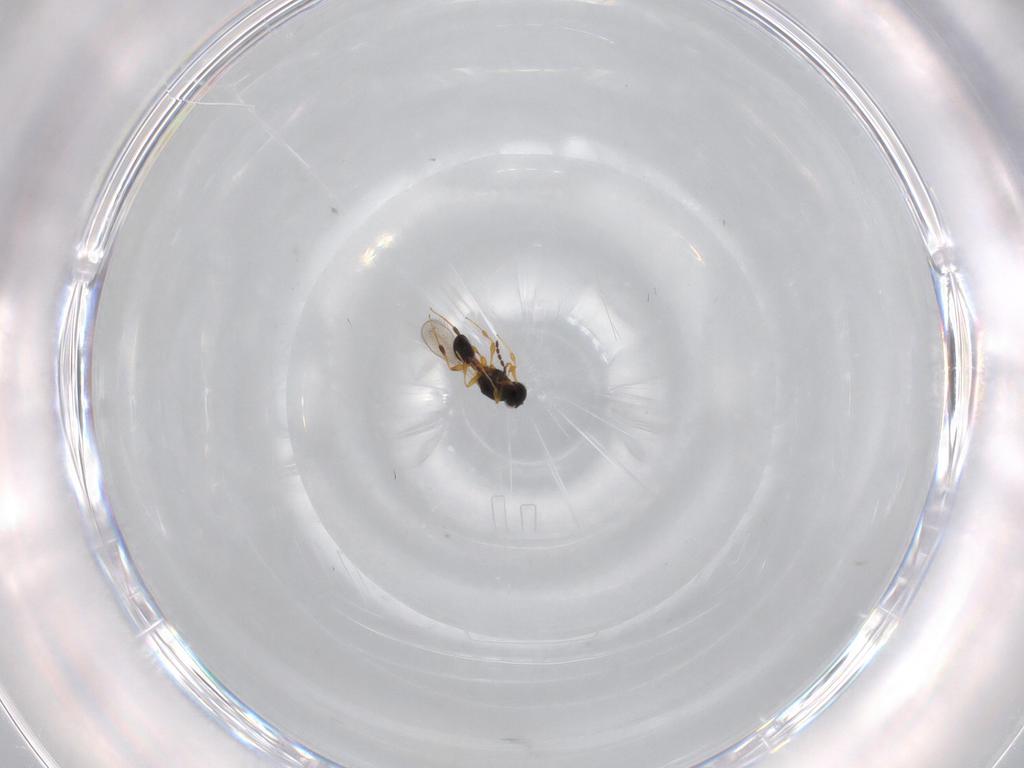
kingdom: Animalia
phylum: Arthropoda
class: Insecta
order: Hymenoptera
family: Platygastridae
